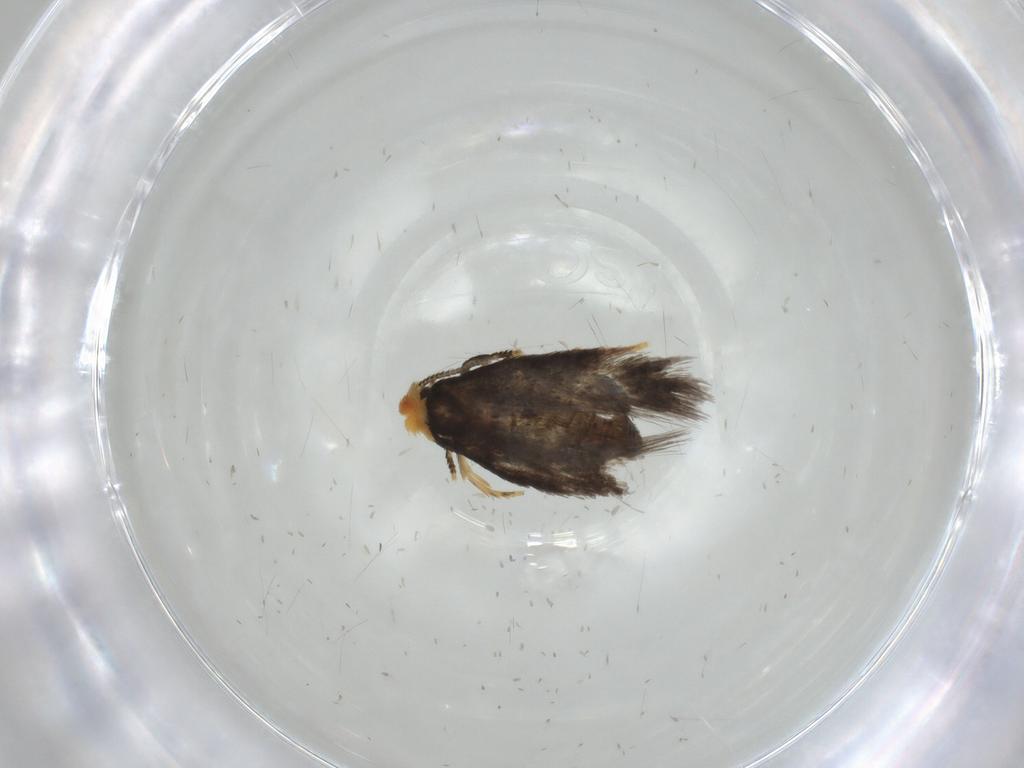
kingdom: Animalia
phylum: Arthropoda
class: Insecta
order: Lepidoptera
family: Nepticulidae
